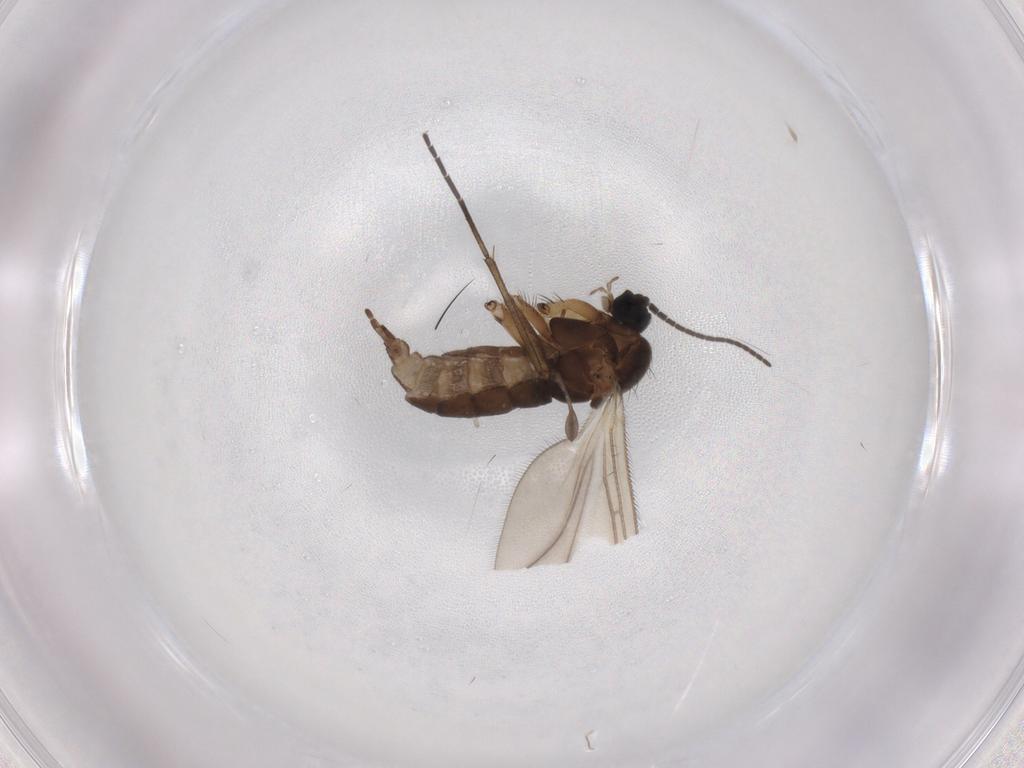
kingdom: Animalia
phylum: Arthropoda
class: Insecta
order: Diptera
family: Sciaridae
